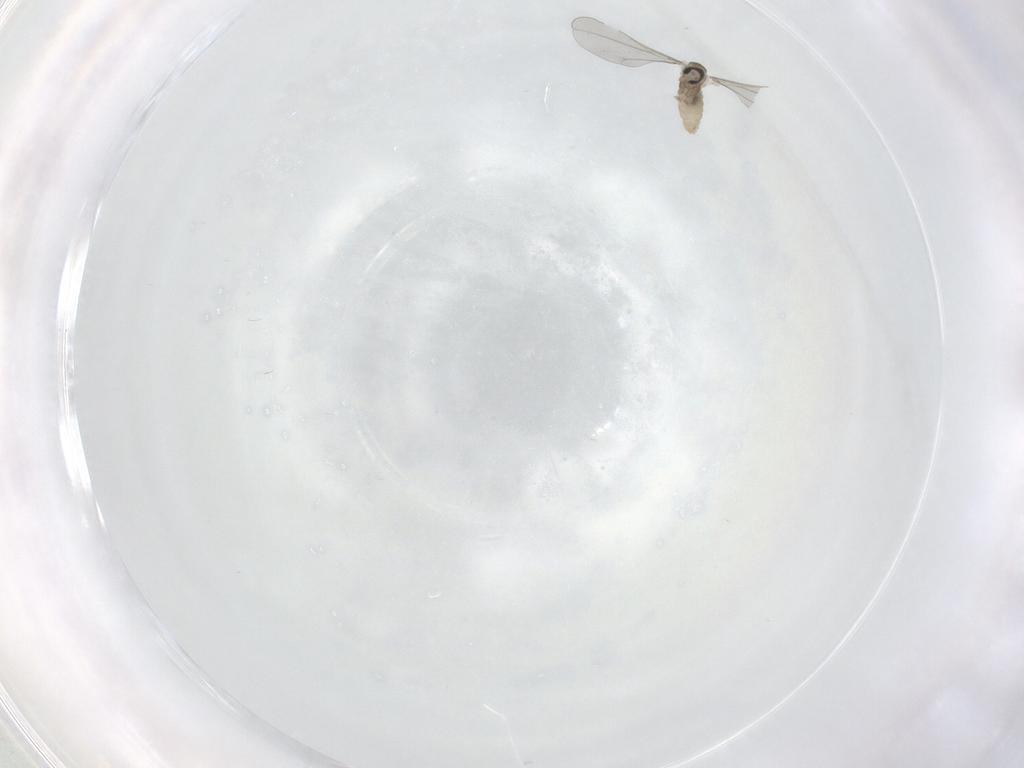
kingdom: Animalia
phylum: Arthropoda
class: Insecta
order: Diptera
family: Cecidomyiidae
